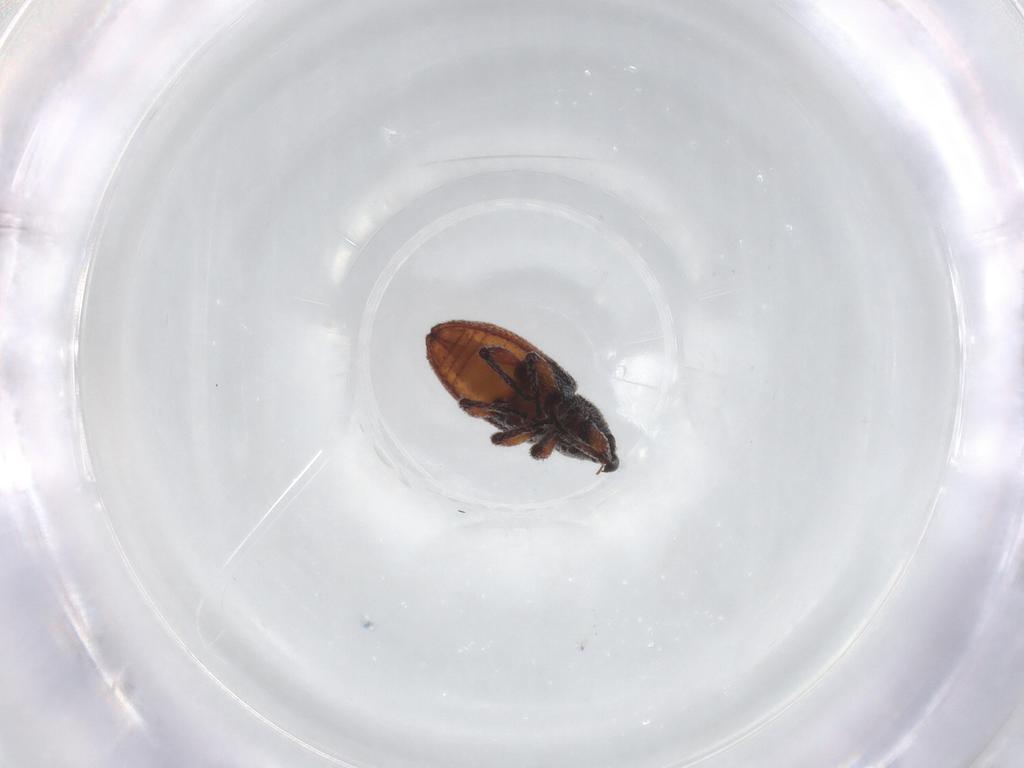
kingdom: Animalia
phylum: Arthropoda
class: Insecta
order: Coleoptera
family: Curculionidae
